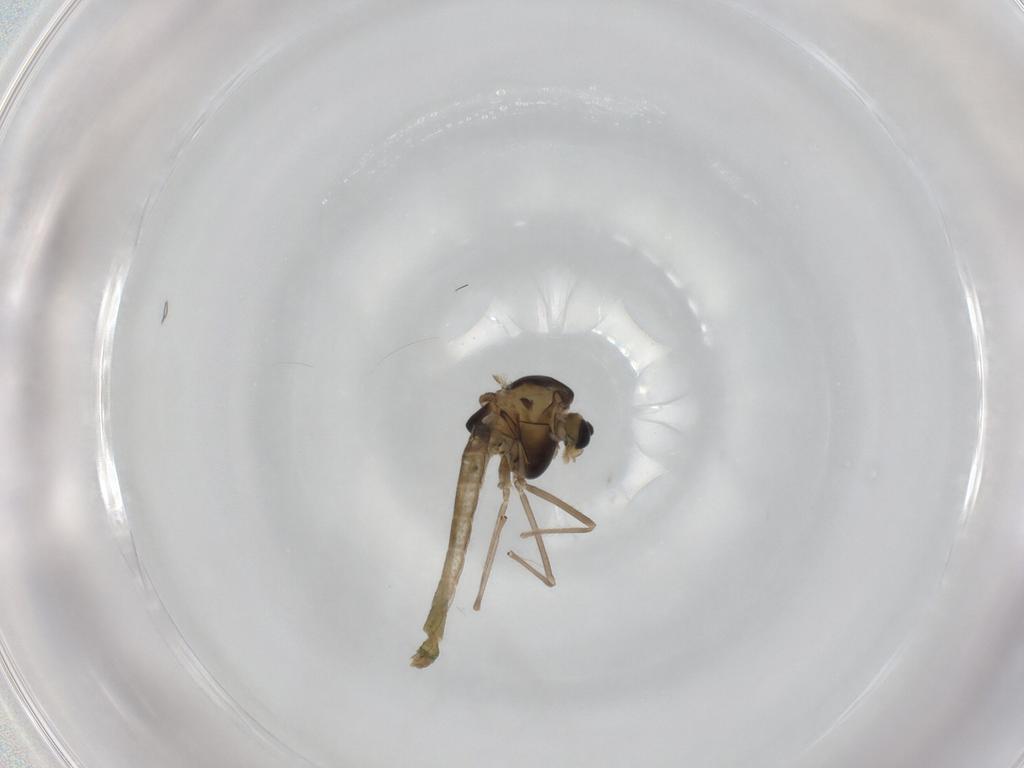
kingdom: Animalia
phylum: Arthropoda
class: Insecta
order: Diptera
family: Chironomidae
